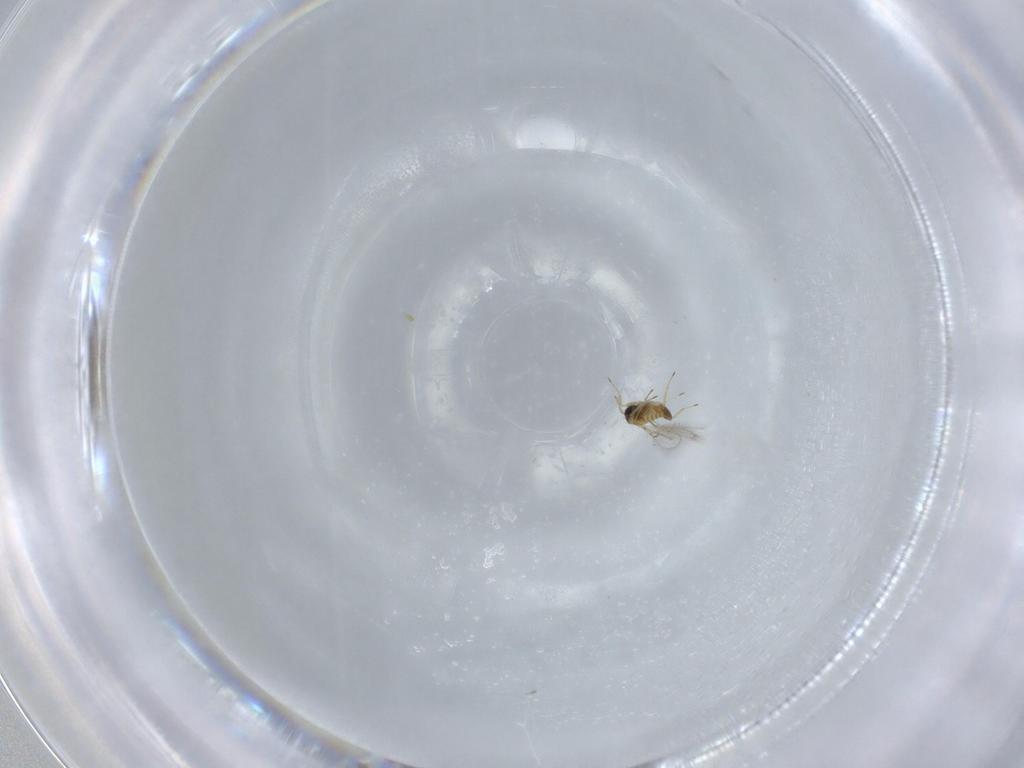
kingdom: Animalia
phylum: Arthropoda
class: Insecta
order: Hymenoptera
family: Trichogrammatidae
